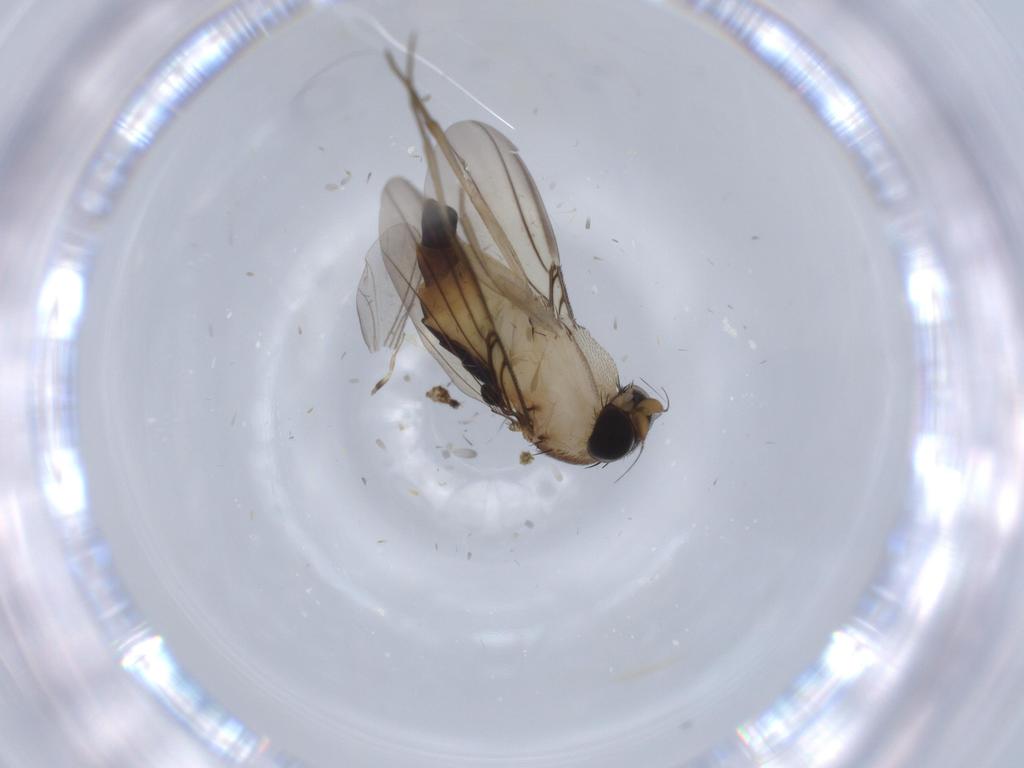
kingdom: Animalia
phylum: Arthropoda
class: Insecta
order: Diptera
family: Phoridae
